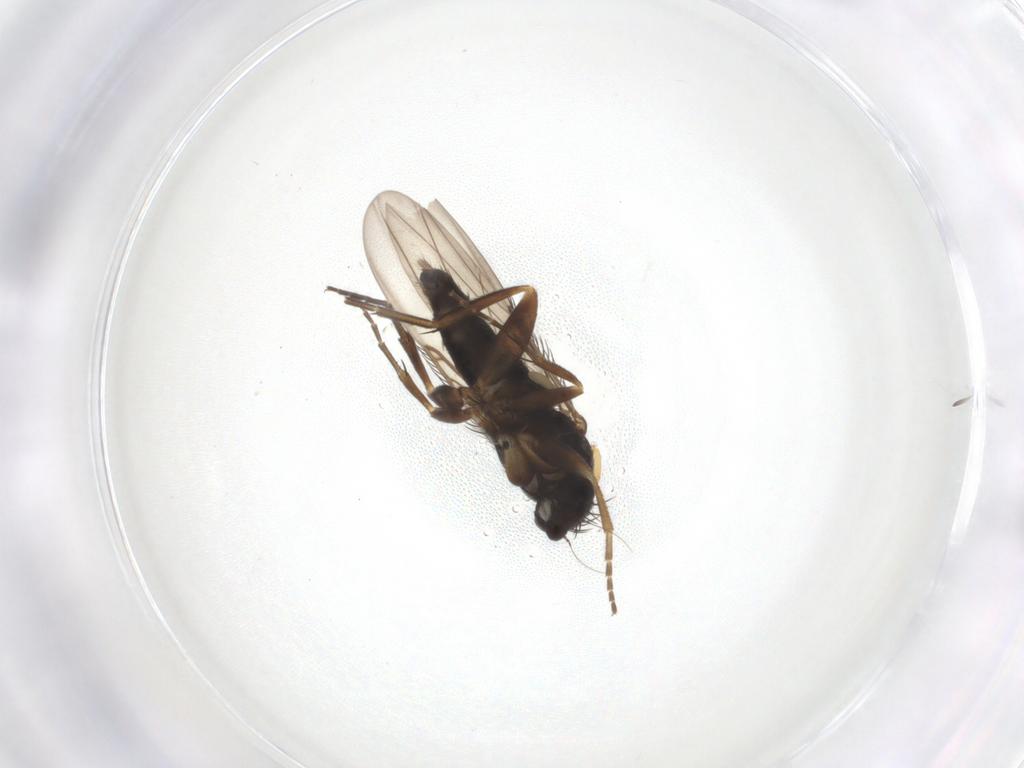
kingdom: Animalia
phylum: Arthropoda
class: Insecta
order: Diptera
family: Phoridae
